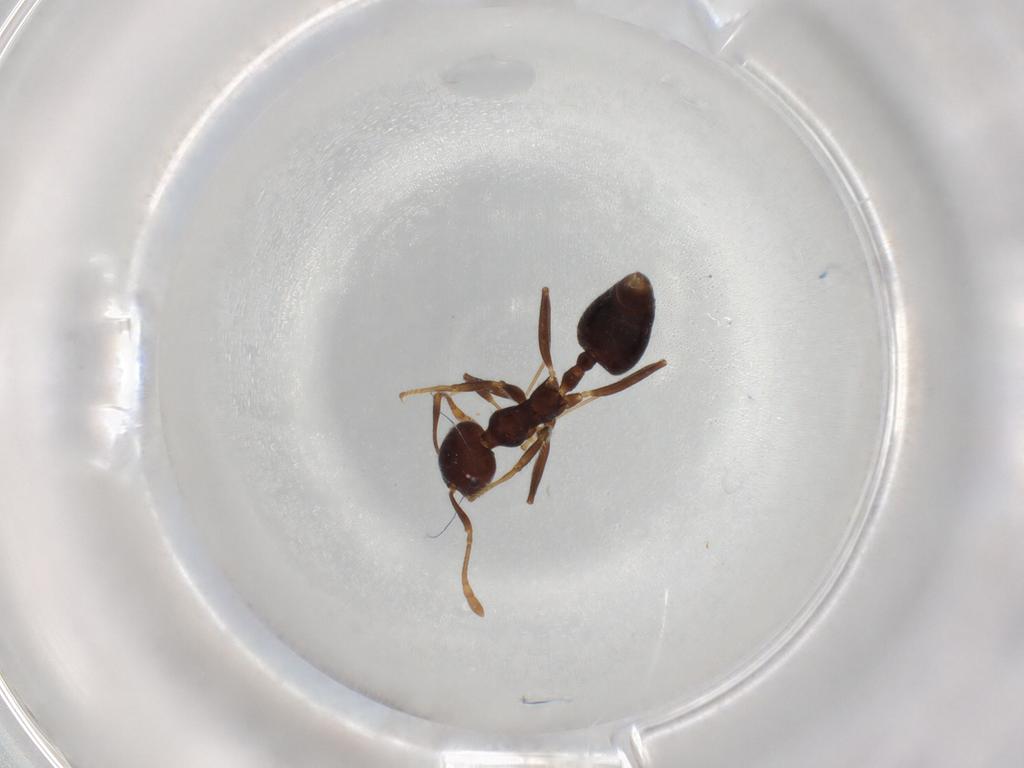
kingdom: Animalia
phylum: Arthropoda
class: Insecta
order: Hymenoptera
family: Formicidae
